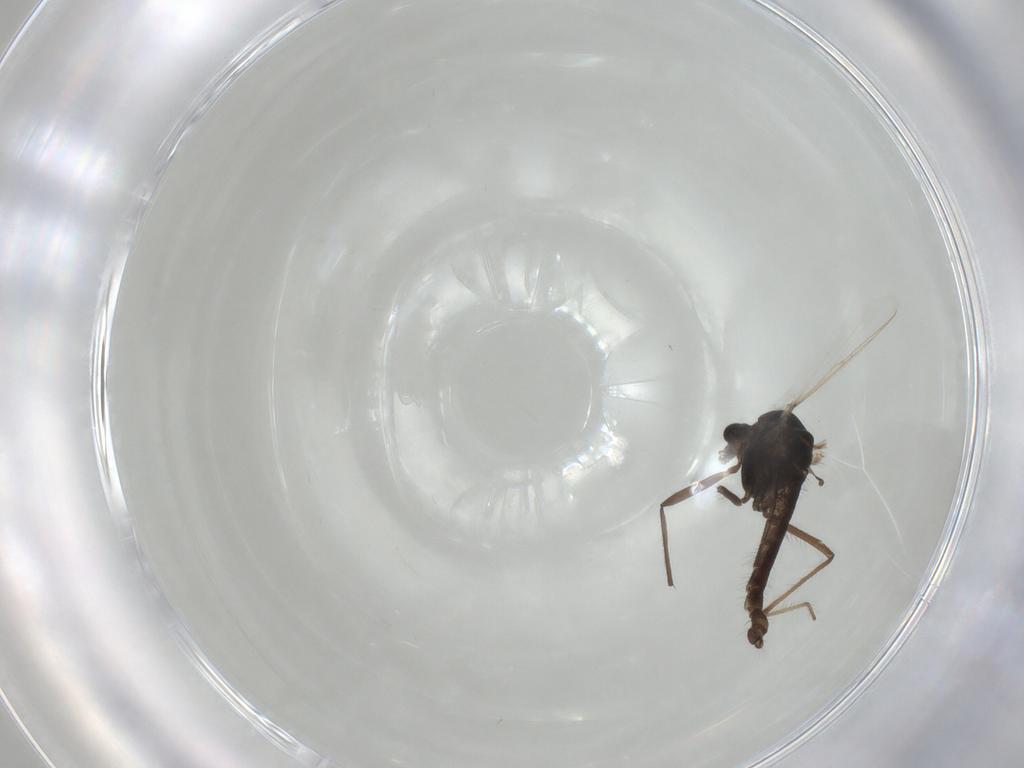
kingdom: Animalia
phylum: Arthropoda
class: Insecta
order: Diptera
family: Chironomidae
